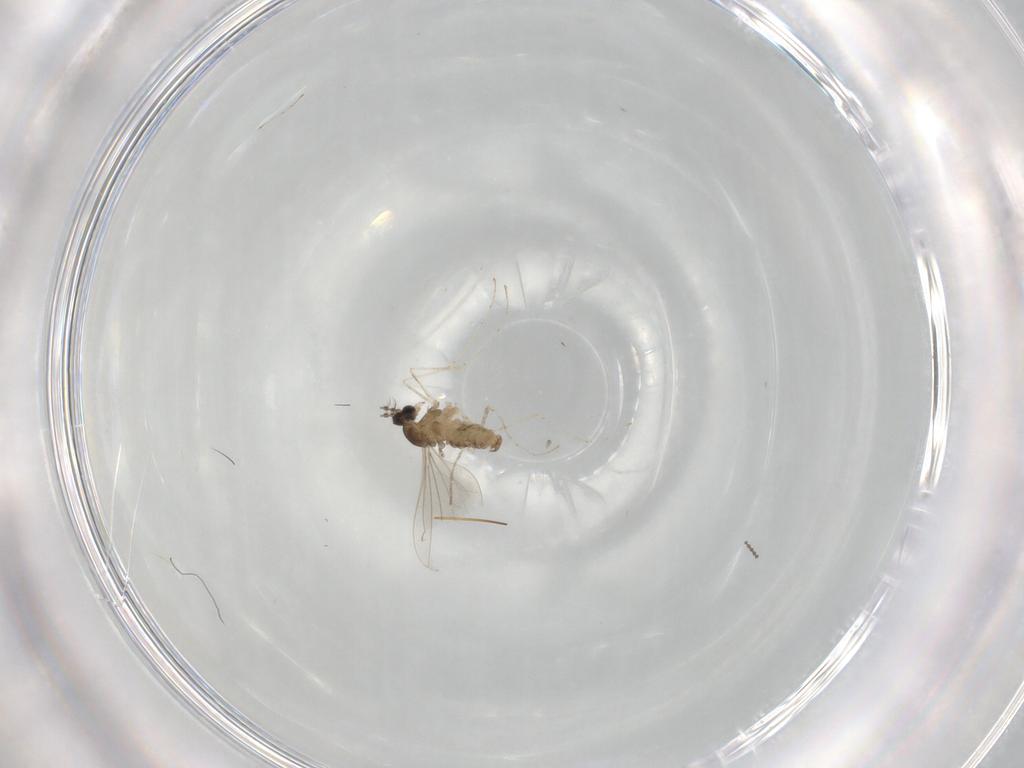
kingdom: Animalia
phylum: Arthropoda
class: Insecta
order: Diptera
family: Cecidomyiidae
